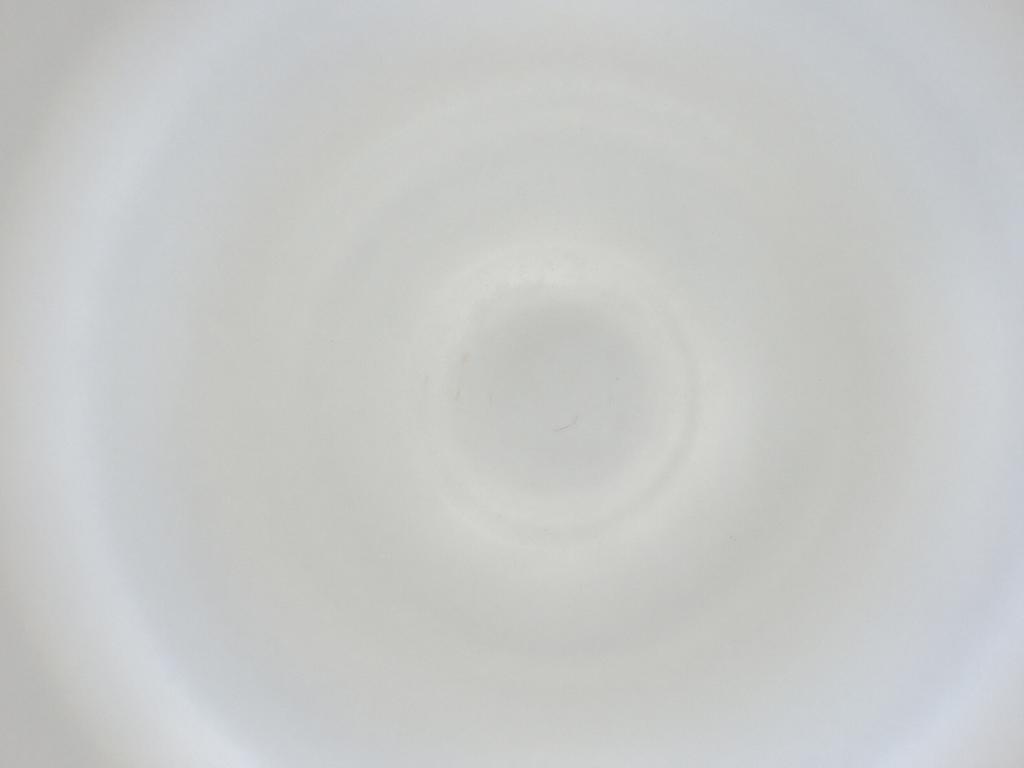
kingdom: Animalia
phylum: Arthropoda
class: Insecta
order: Diptera
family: Cecidomyiidae
